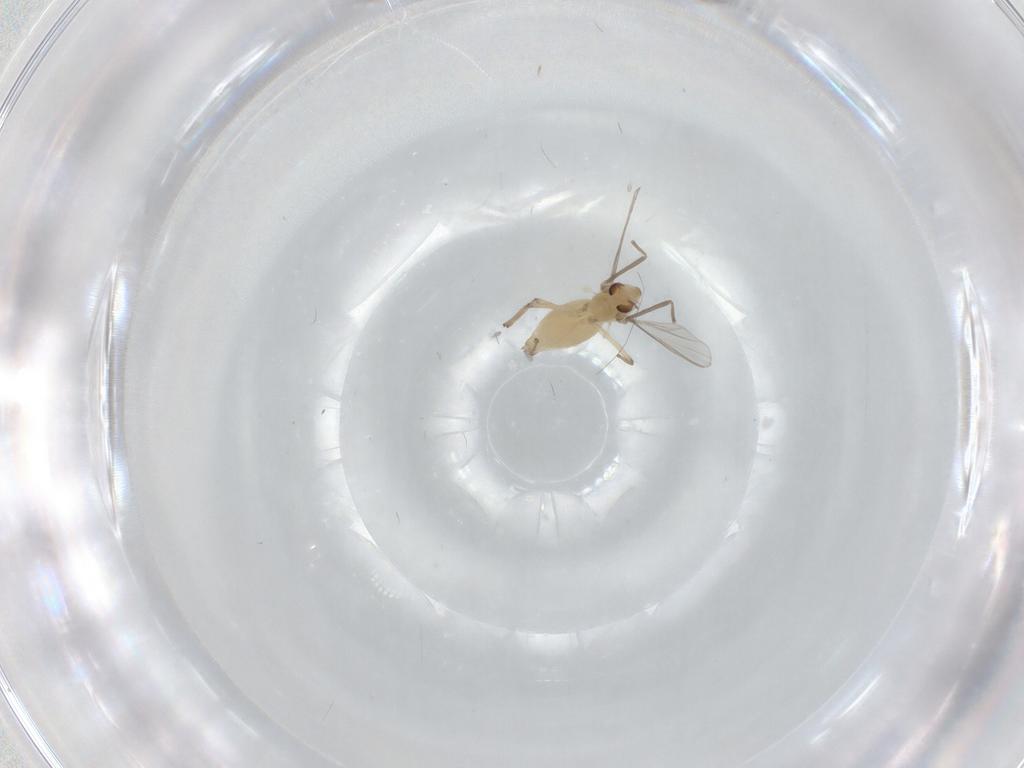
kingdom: Animalia
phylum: Arthropoda
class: Insecta
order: Diptera
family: Chironomidae
